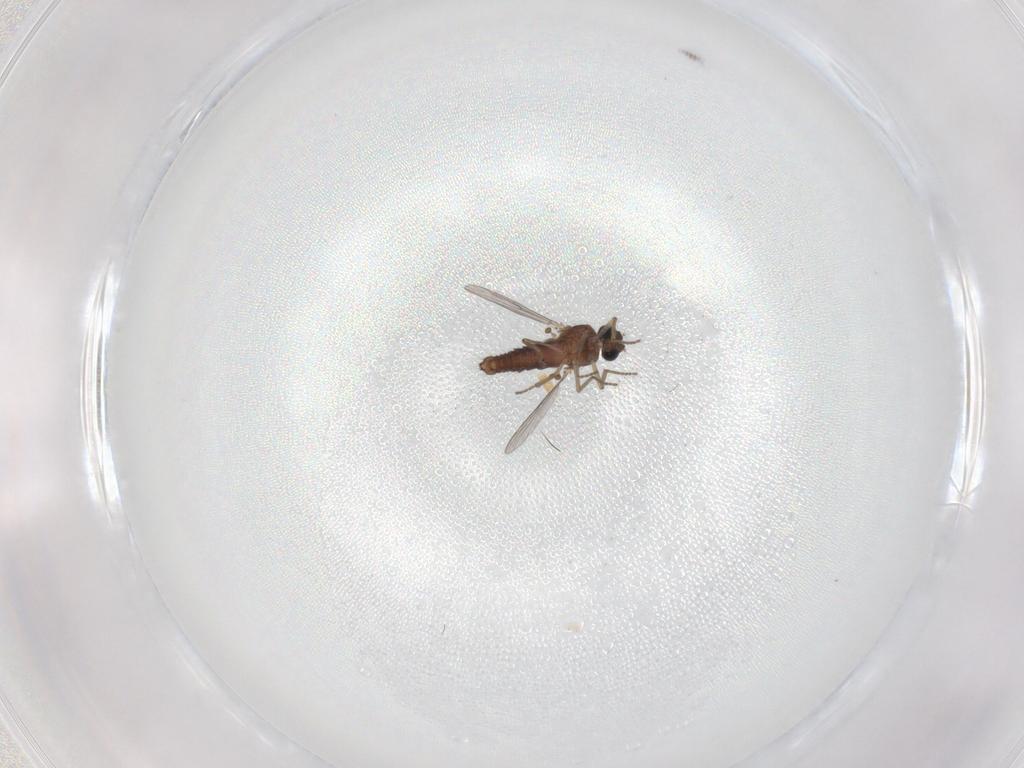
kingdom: Animalia
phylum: Arthropoda
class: Insecta
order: Diptera
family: Ceratopogonidae
